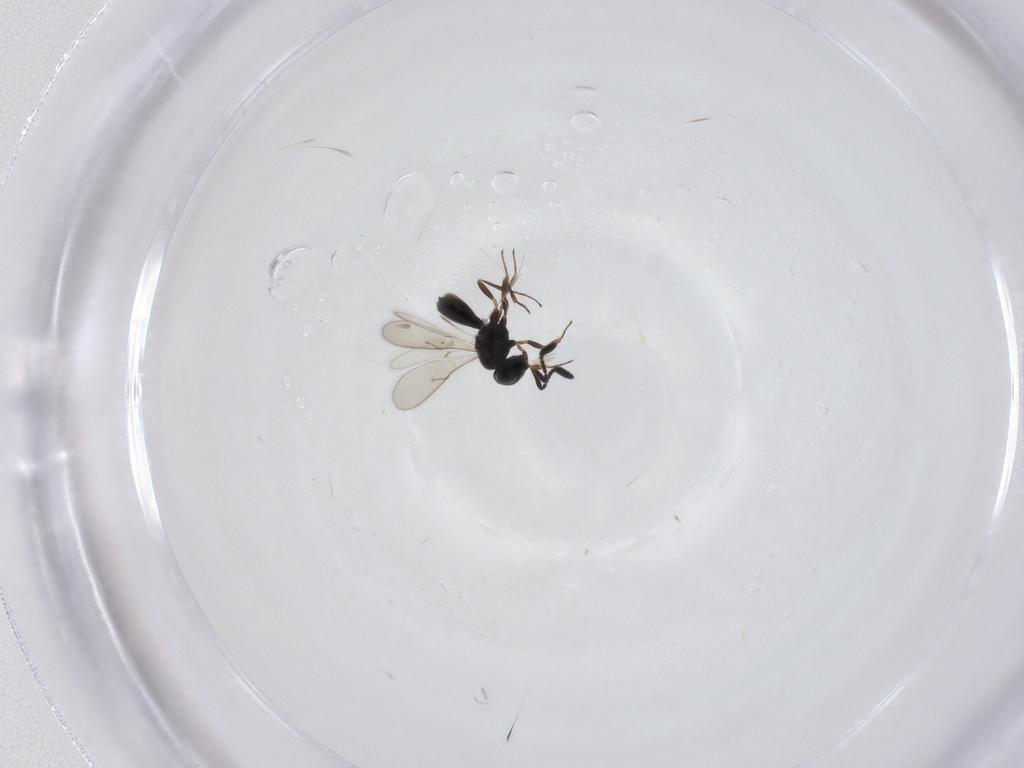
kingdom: Animalia
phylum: Arthropoda
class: Insecta
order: Hymenoptera
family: Scelionidae
